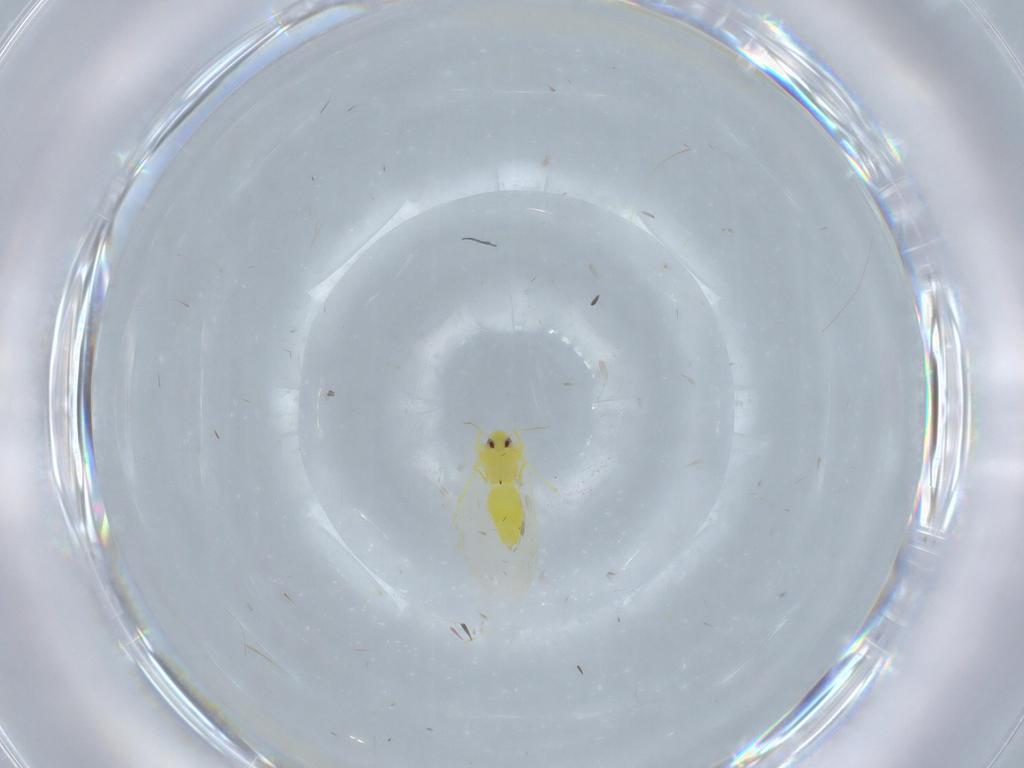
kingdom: Animalia
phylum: Arthropoda
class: Insecta
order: Hemiptera
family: Aleyrodidae
